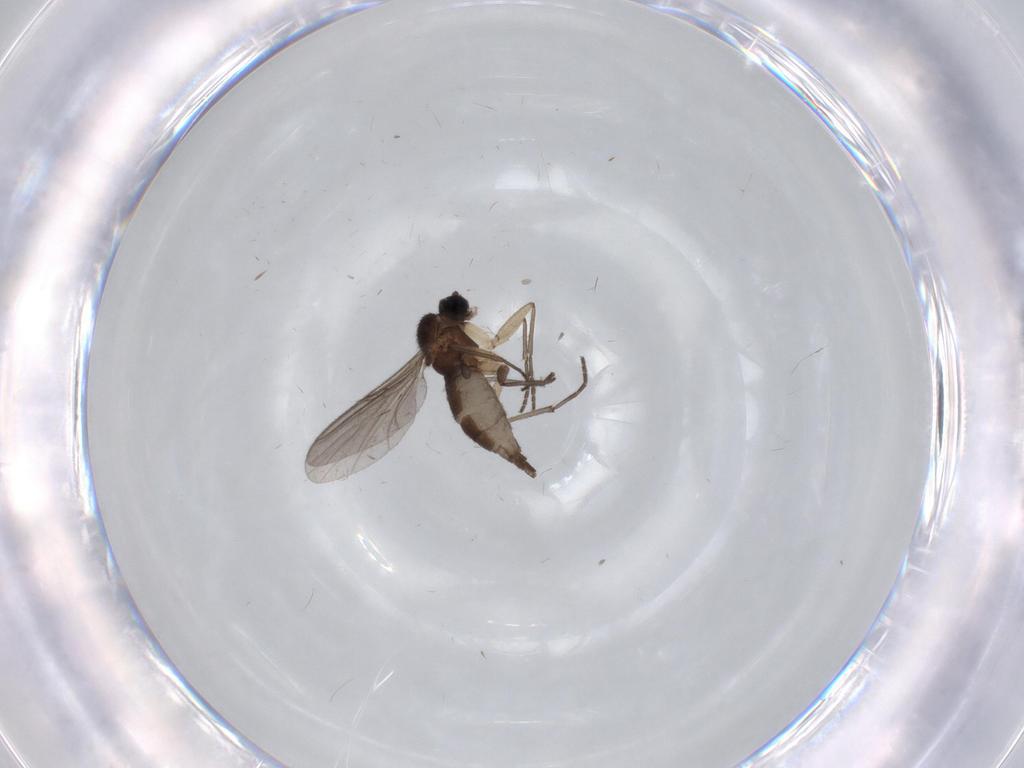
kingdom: Animalia
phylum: Arthropoda
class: Insecta
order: Diptera
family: Sciaridae
